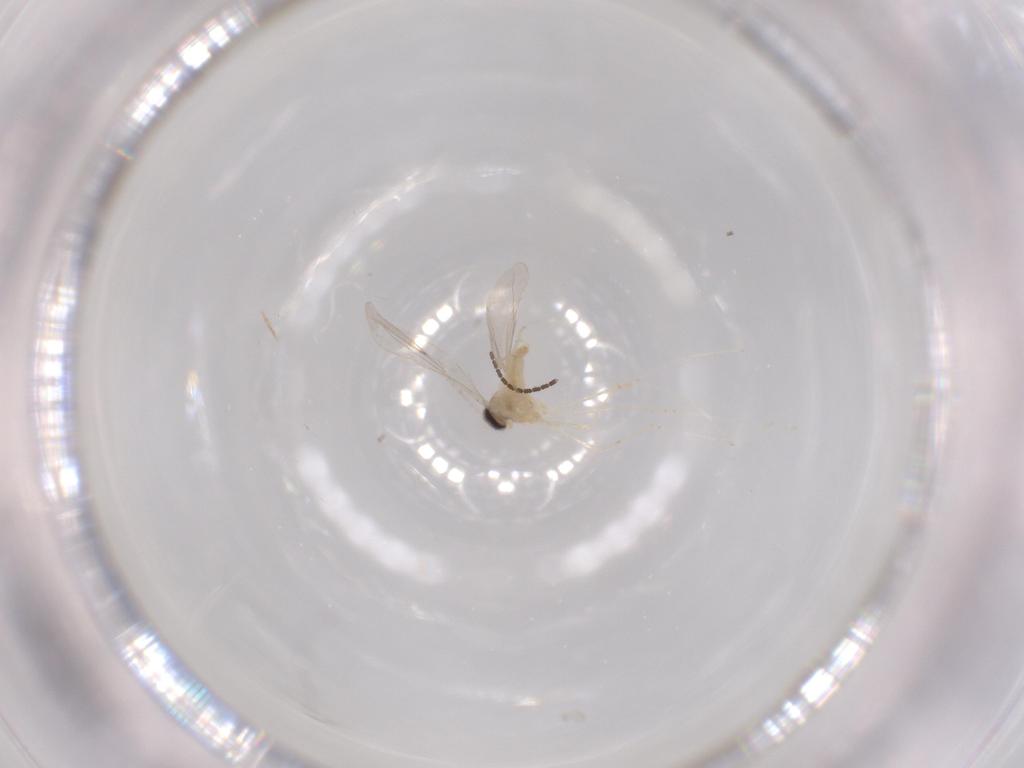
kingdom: Animalia
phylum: Arthropoda
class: Insecta
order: Diptera
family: Cecidomyiidae
